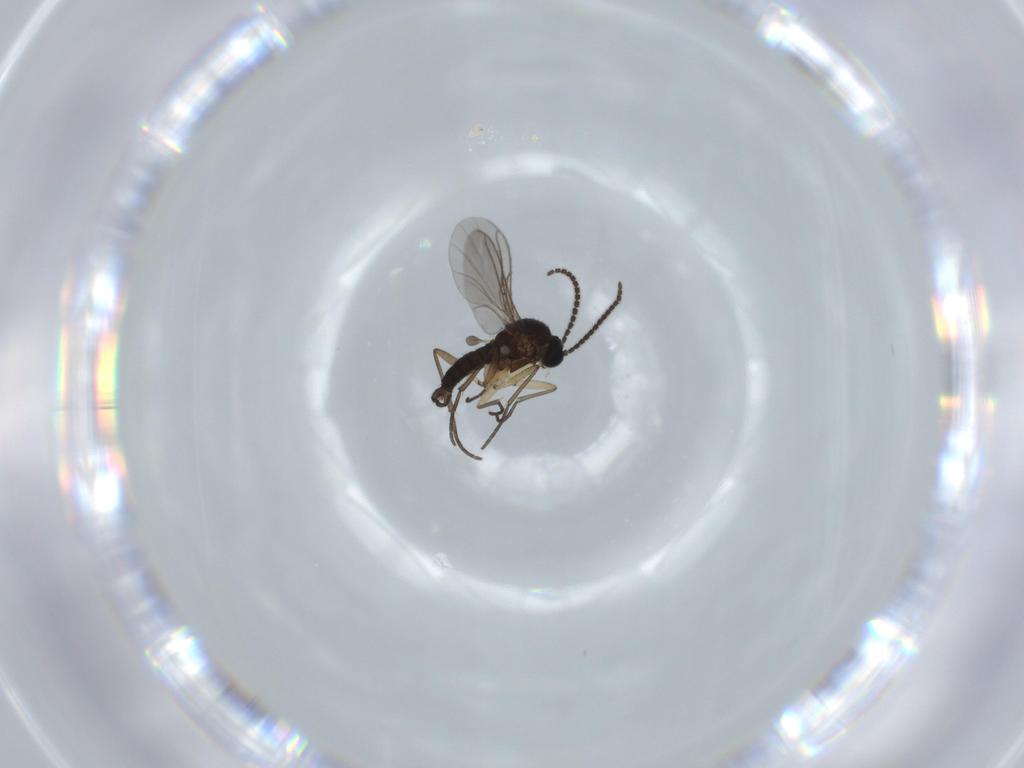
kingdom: Animalia
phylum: Arthropoda
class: Insecta
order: Diptera
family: Sciaridae
